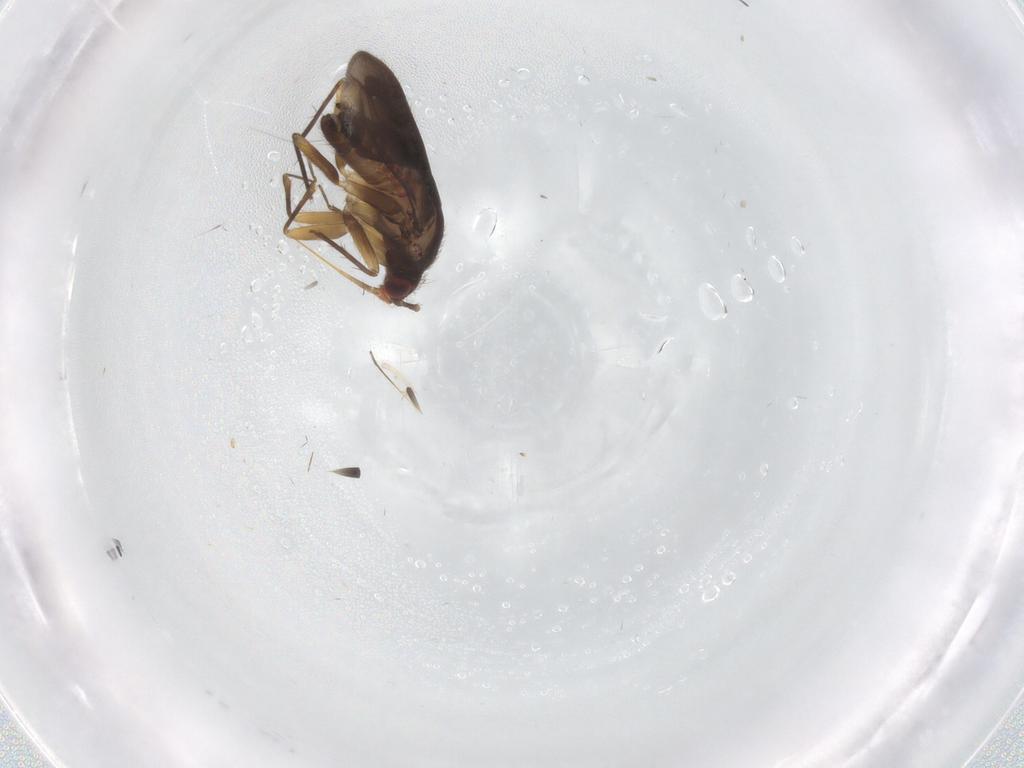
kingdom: Animalia
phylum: Arthropoda
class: Insecta
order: Hemiptera
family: Ceratocombidae
